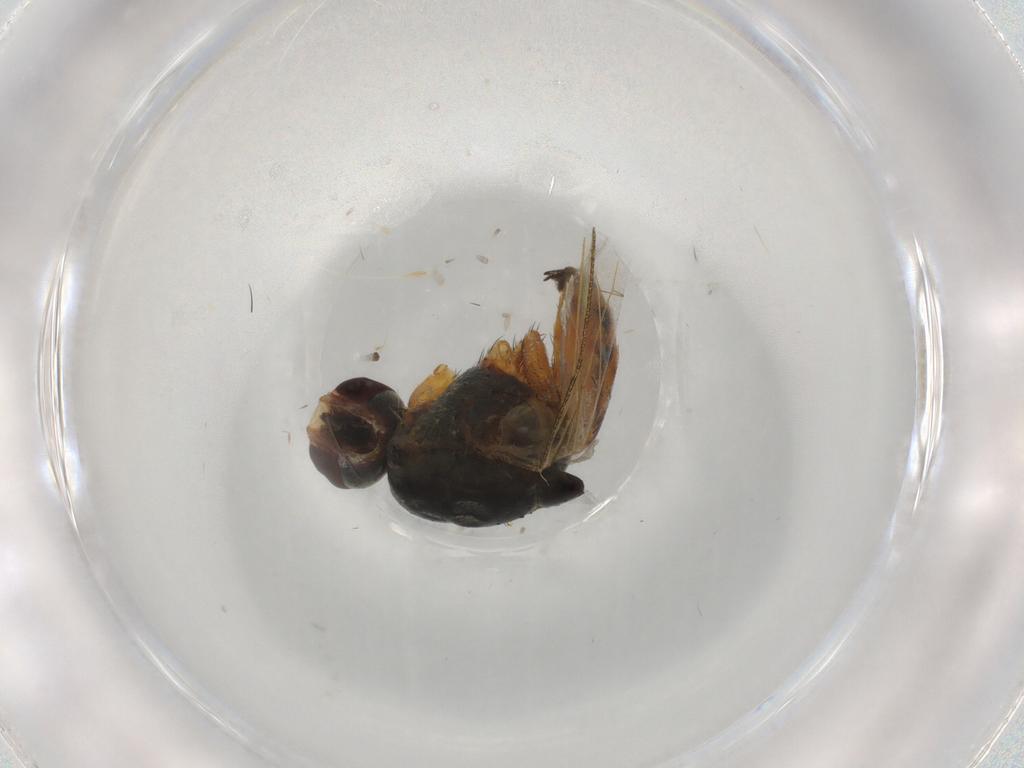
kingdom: Animalia
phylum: Arthropoda
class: Insecta
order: Diptera
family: Muscidae
